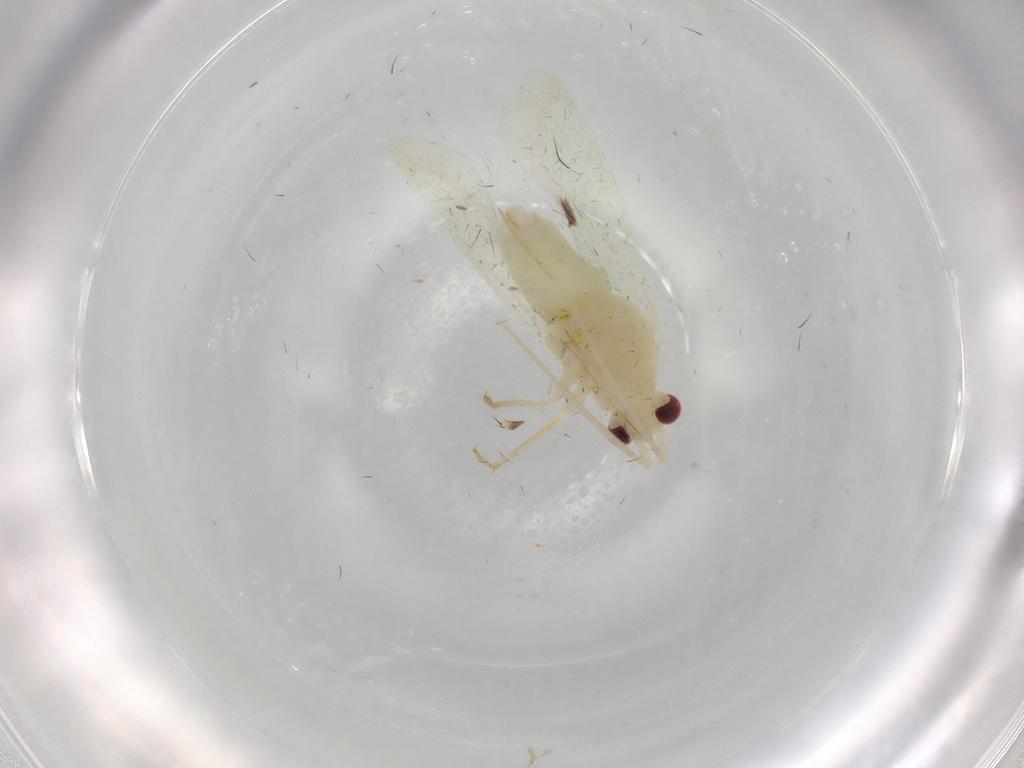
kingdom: Animalia
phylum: Arthropoda
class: Insecta
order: Hemiptera
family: Miridae
